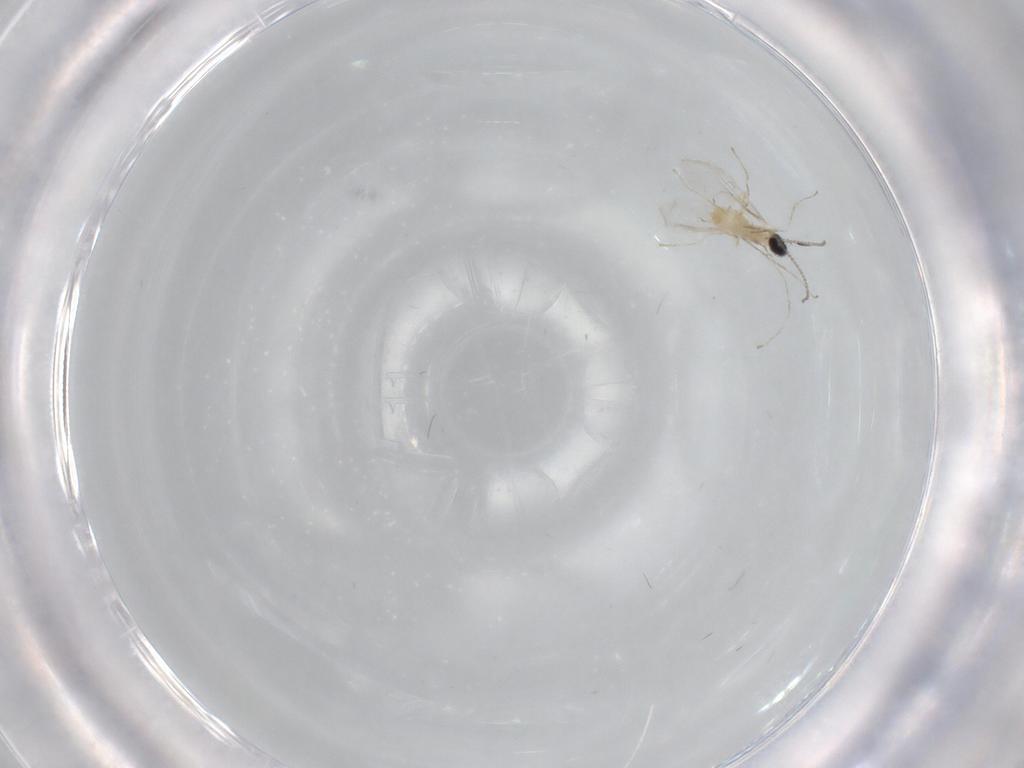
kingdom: Animalia
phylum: Arthropoda
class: Insecta
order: Diptera
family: Cecidomyiidae
